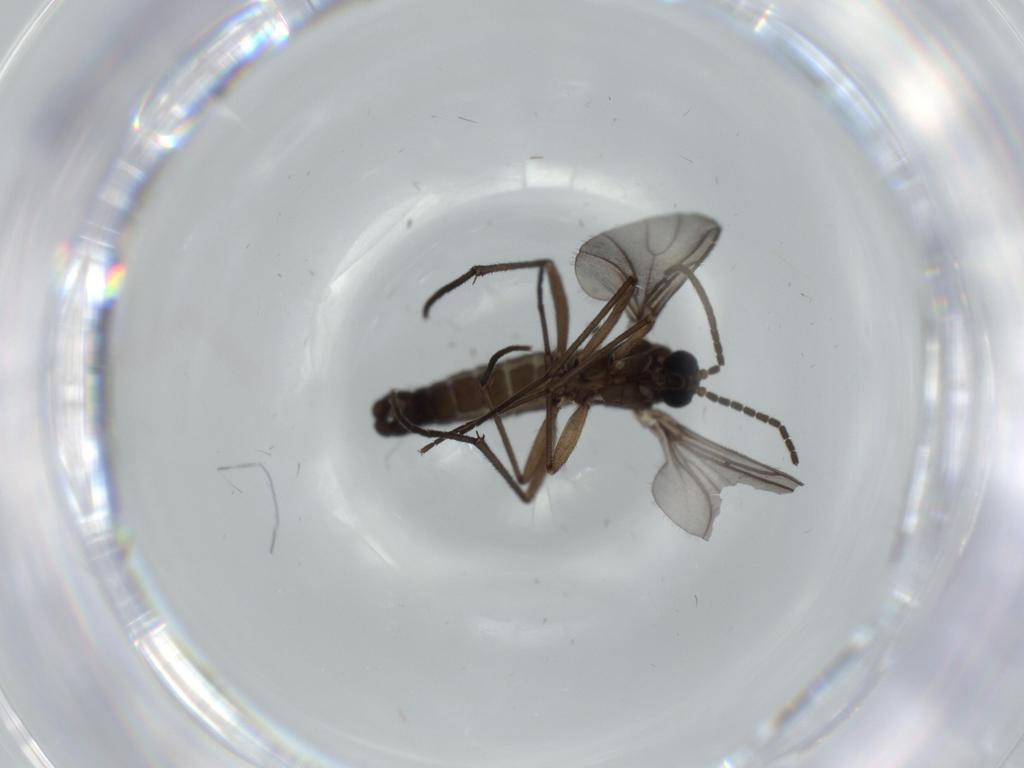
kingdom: Animalia
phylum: Arthropoda
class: Insecta
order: Diptera
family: Sciaridae
